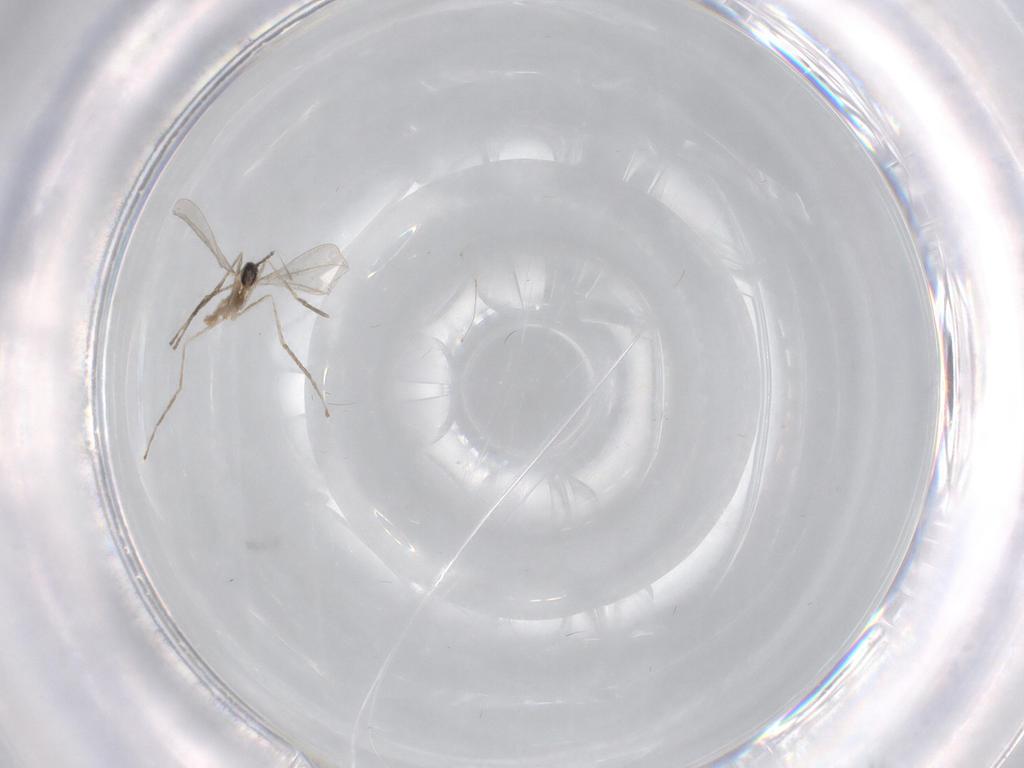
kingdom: Animalia
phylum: Arthropoda
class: Insecta
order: Diptera
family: Cecidomyiidae
